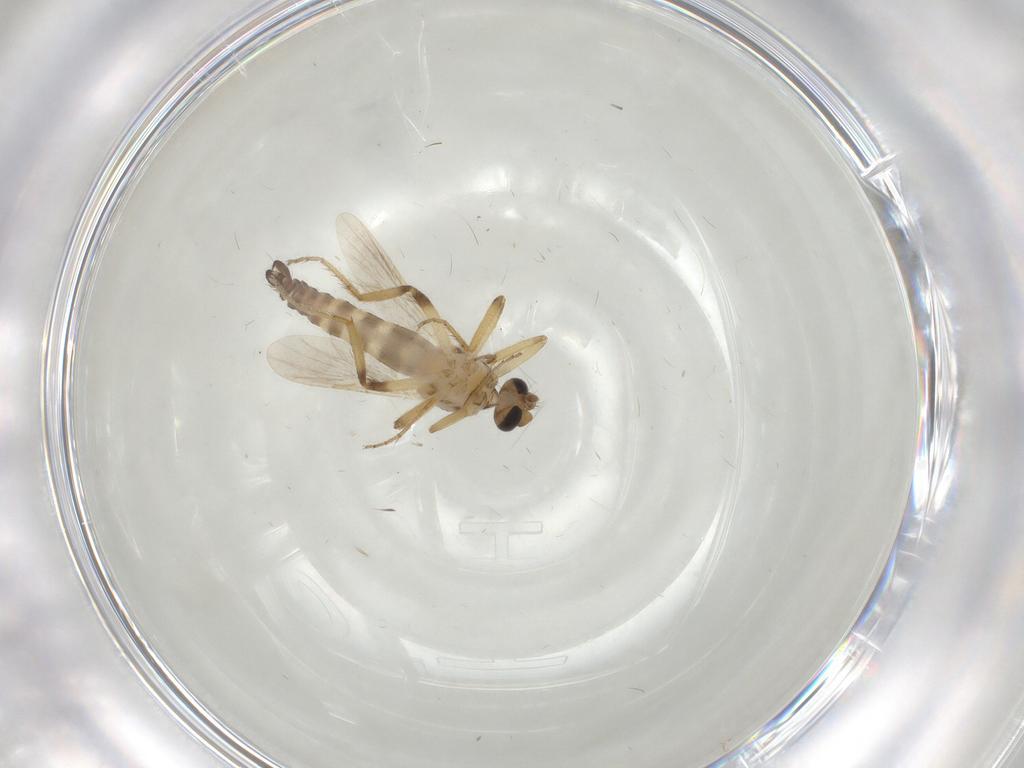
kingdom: Animalia
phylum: Arthropoda
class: Insecta
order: Diptera
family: Ceratopogonidae
